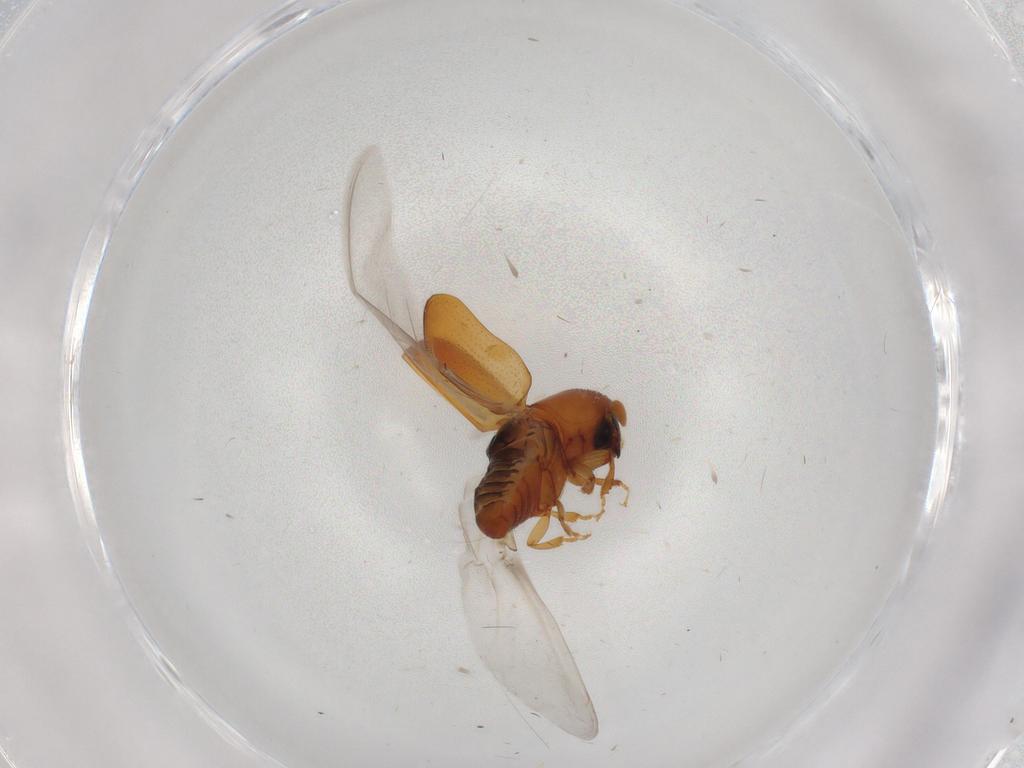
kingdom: Animalia
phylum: Arthropoda
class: Insecta
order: Coleoptera
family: Curculionidae
